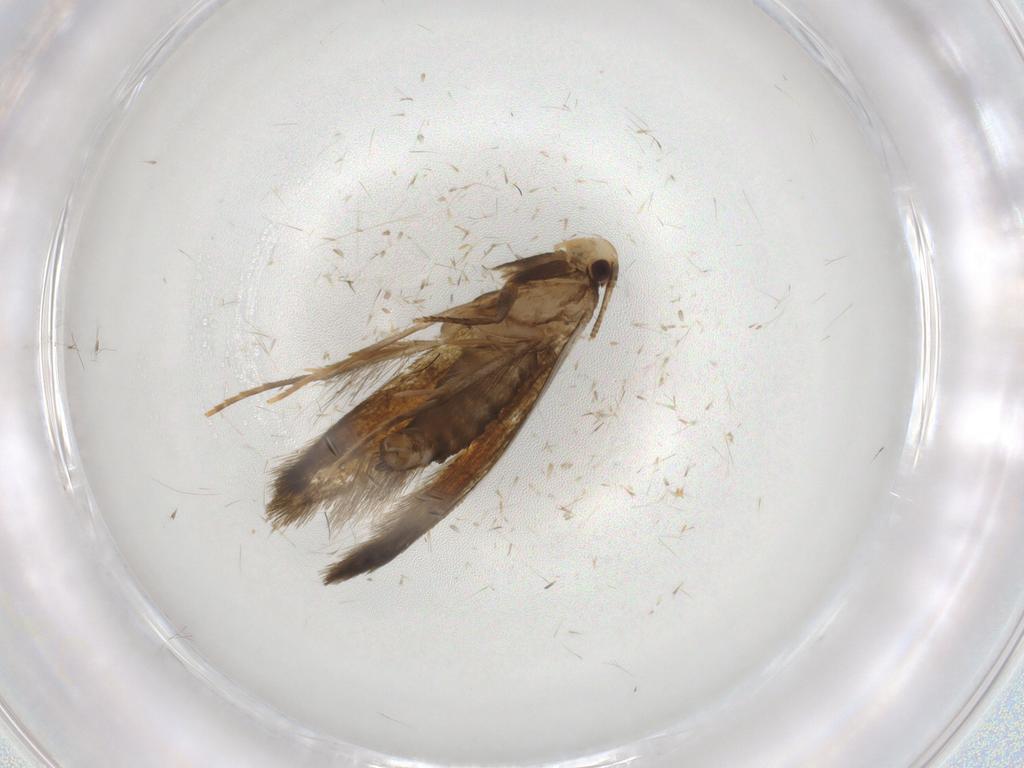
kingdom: Animalia
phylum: Arthropoda
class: Insecta
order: Lepidoptera
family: Tineidae
